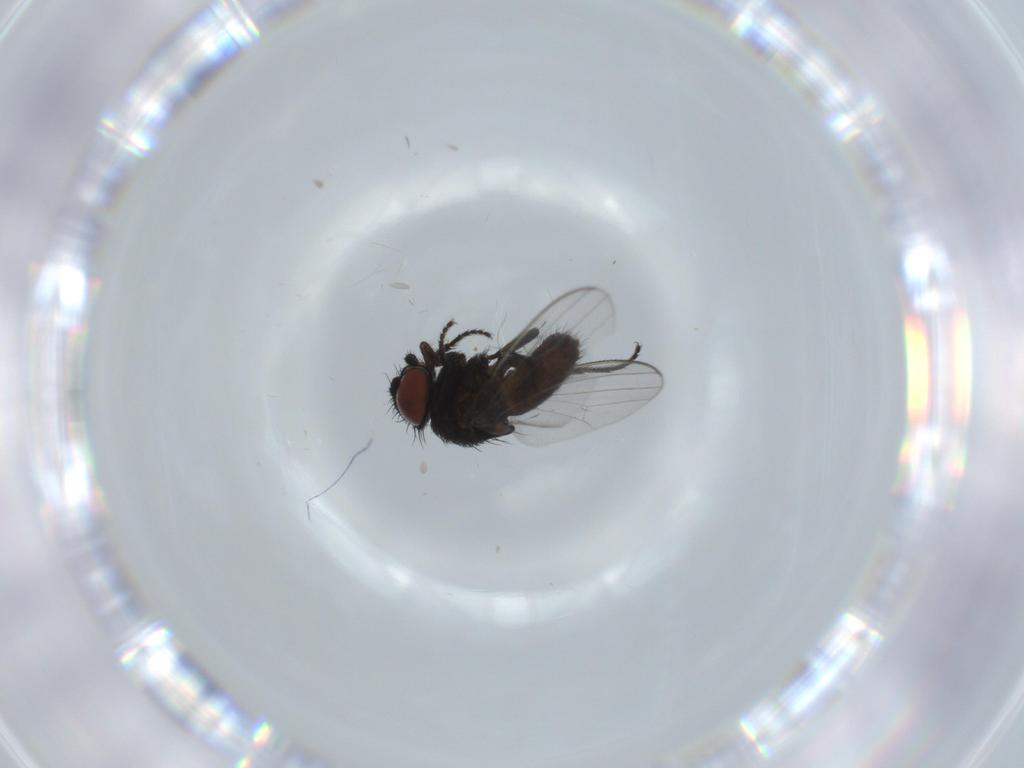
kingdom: Animalia
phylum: Arthropoda
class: Insecta
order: Diptera
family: Milichiidae
